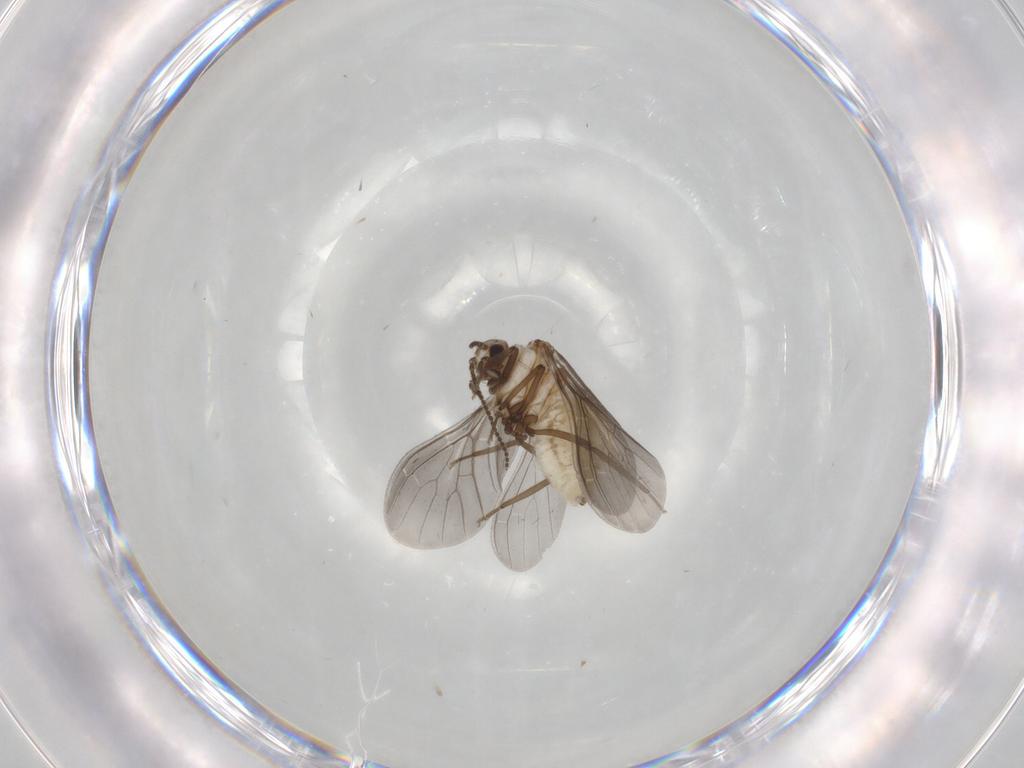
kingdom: Animalia
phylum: Arthropoda
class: Insecta
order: Neuroptera
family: Coniopterygidae
